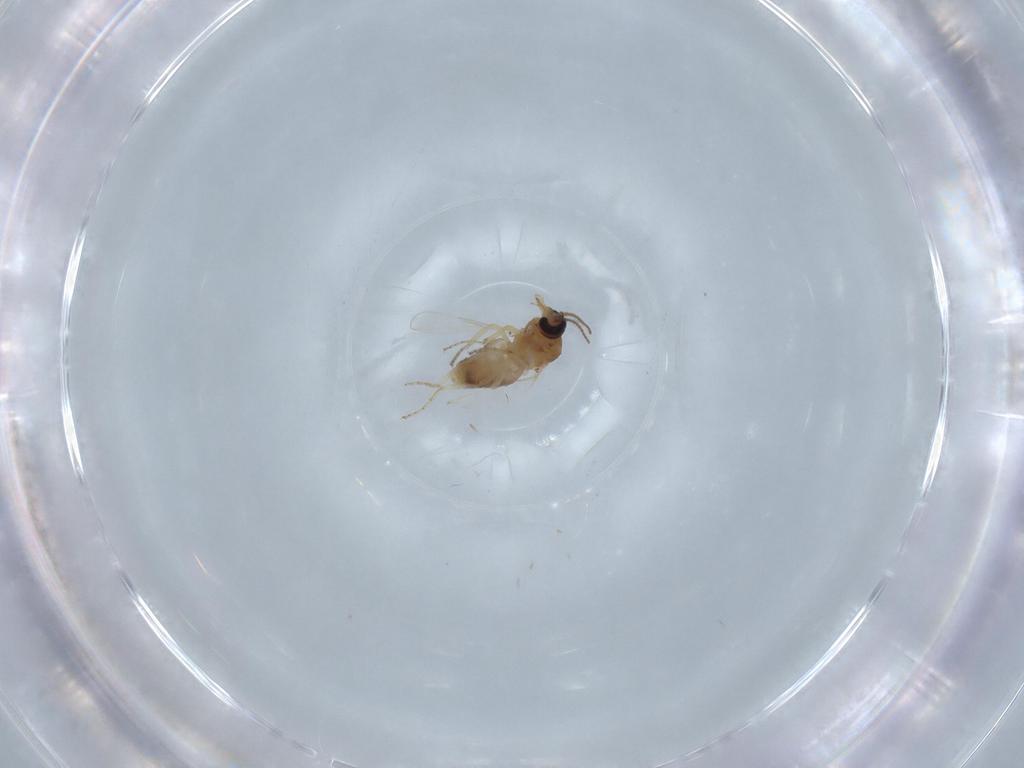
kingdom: Animalia
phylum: Arthropoda
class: Insecta
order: Diptera
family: Ceratopogonidae
